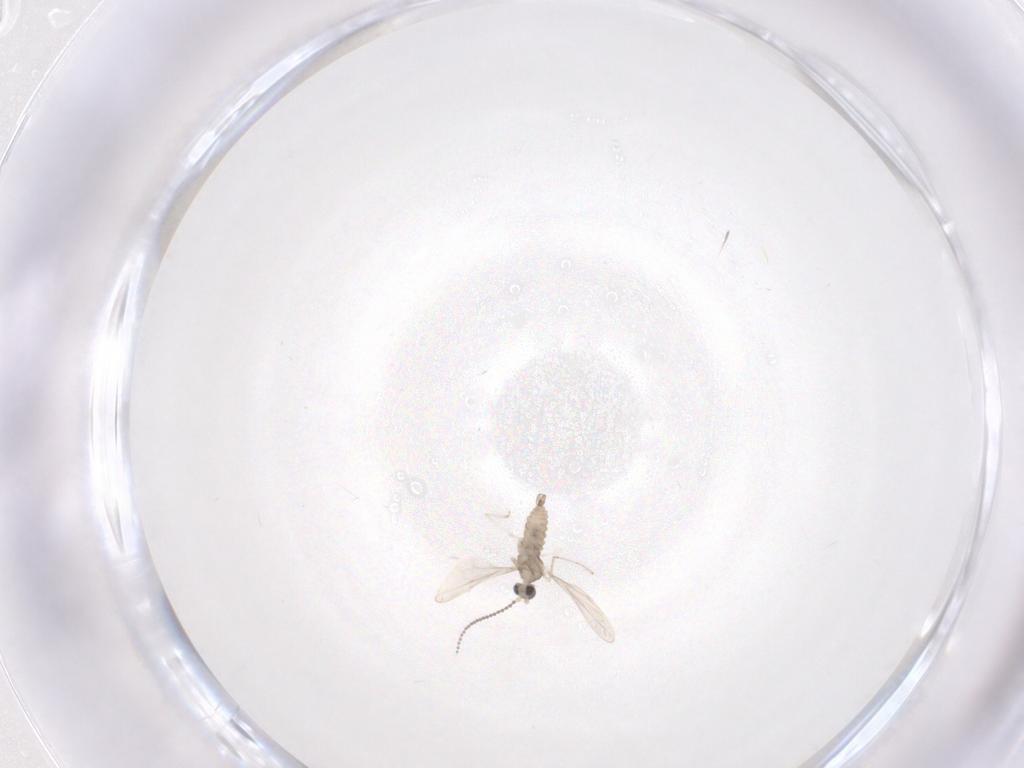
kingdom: Animalia
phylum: Arthropoda
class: Insecta
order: Diptera
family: Cecidomyiidae
